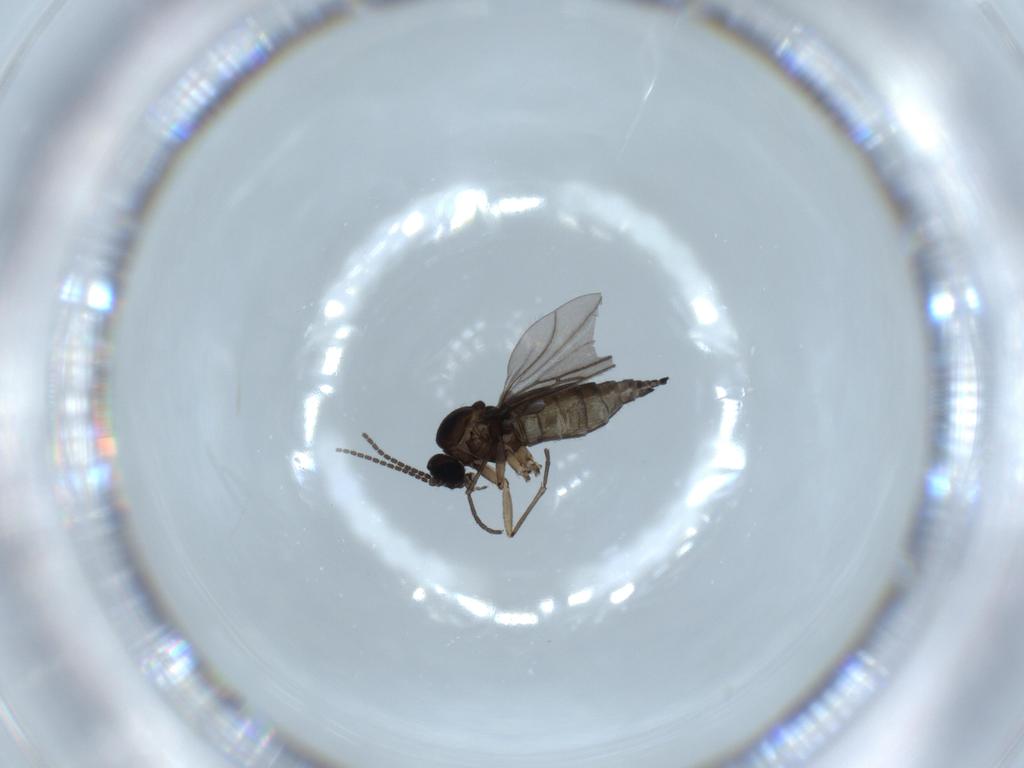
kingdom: Animalia
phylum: Arthropoda
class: Insecta
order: Diptera
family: Sciaridae
